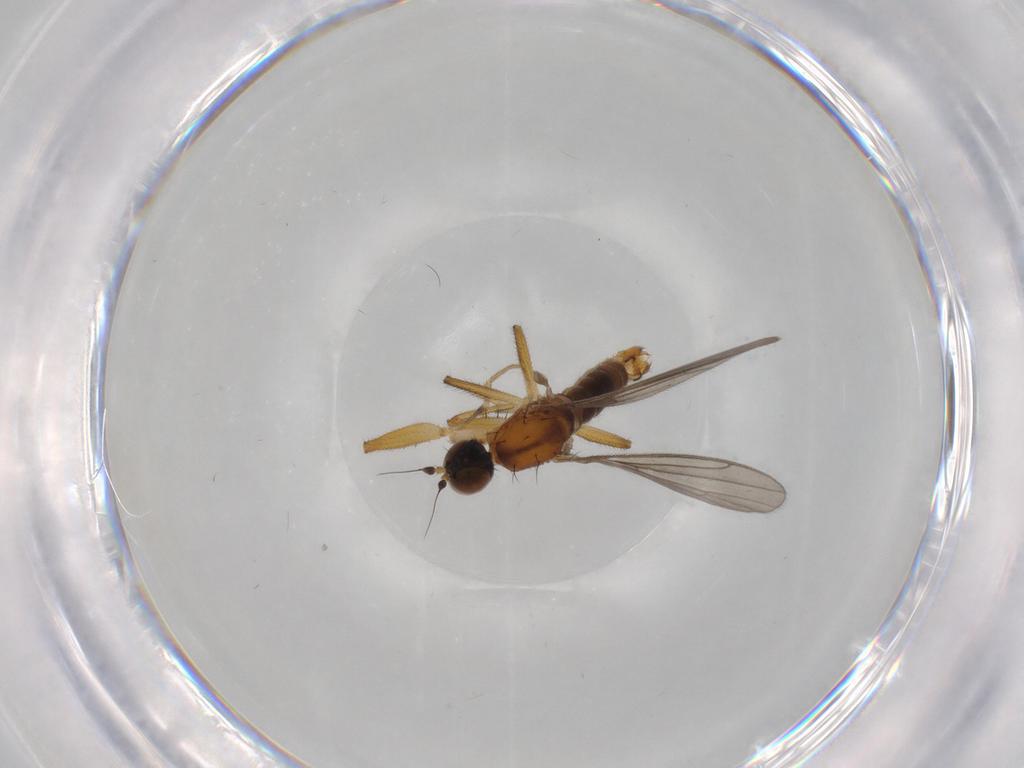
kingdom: Animalia
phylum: Arthropoda
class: Insecta
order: Diptera
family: Empididae
